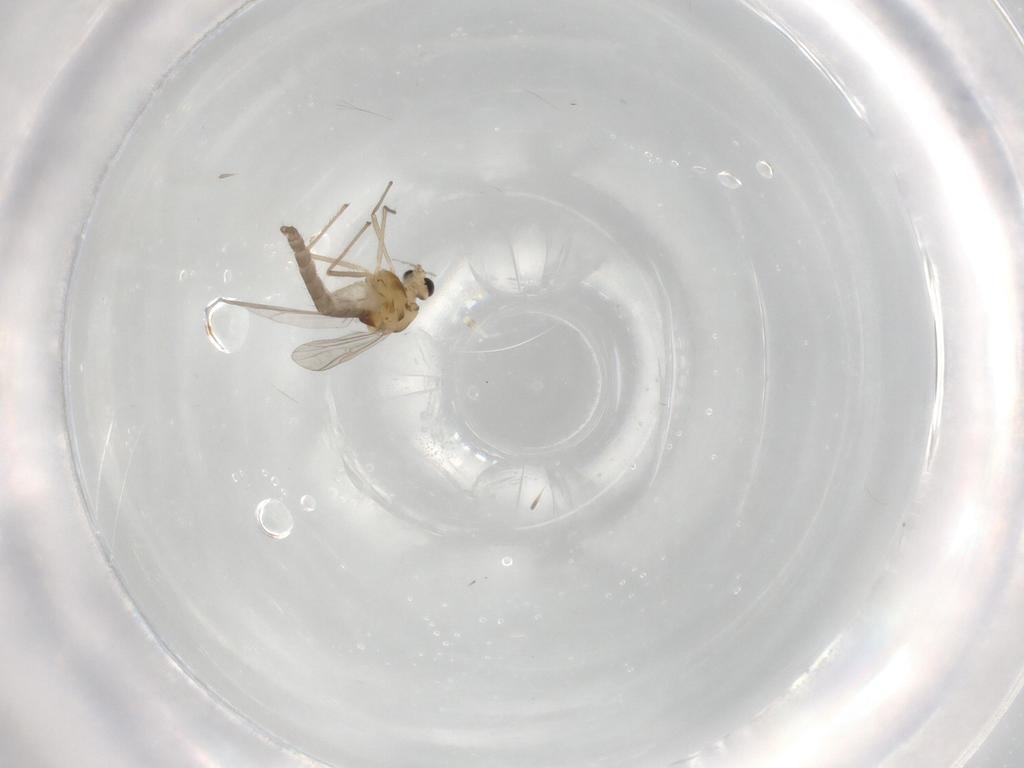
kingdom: Animalia
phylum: Arthropoda
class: Insecta
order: Diptera
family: Chironomidae
